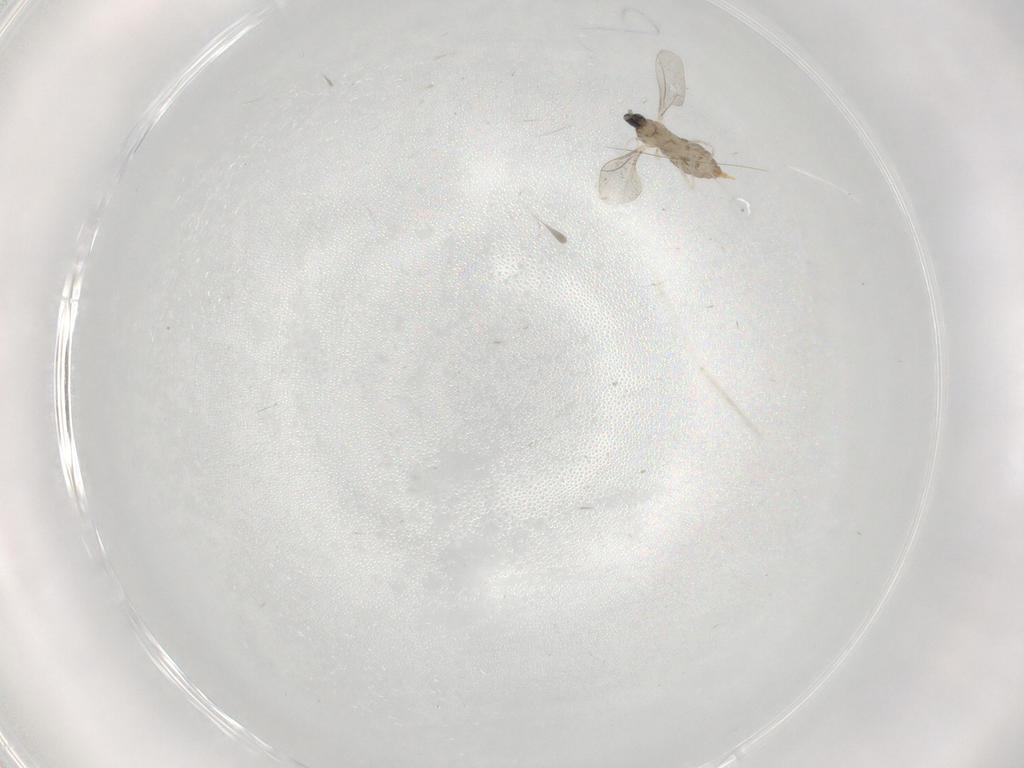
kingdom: Animalia
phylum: Arthropoda
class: Insecta
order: Diptera
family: Cecidomyiidae
